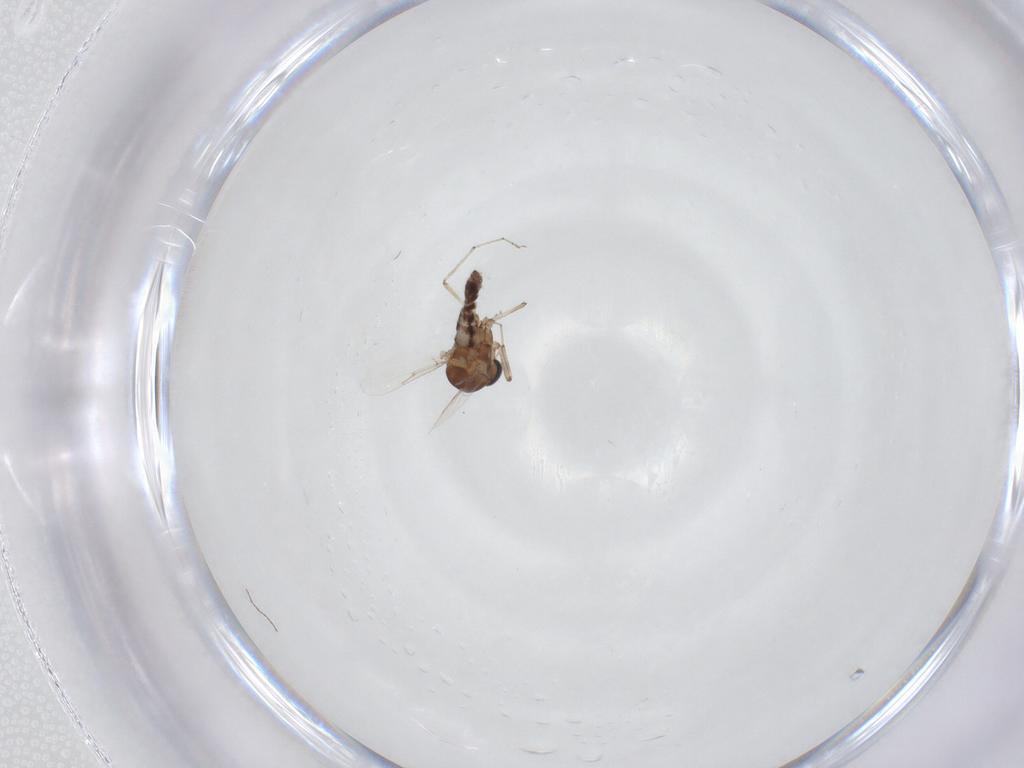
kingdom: Animalia
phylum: Arthropoda
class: Insecta
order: Diptera
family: Ceratopogonidae
